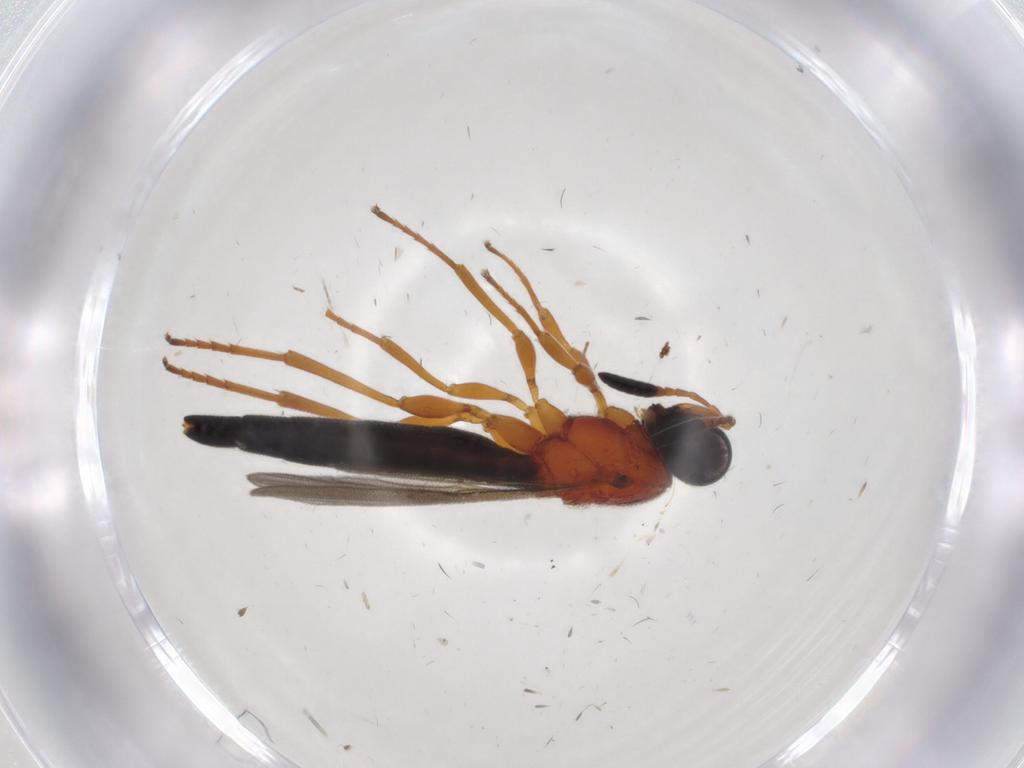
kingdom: Animalia
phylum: Arthropoda
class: Insecta
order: Hymenoptera
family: Scelionidae
